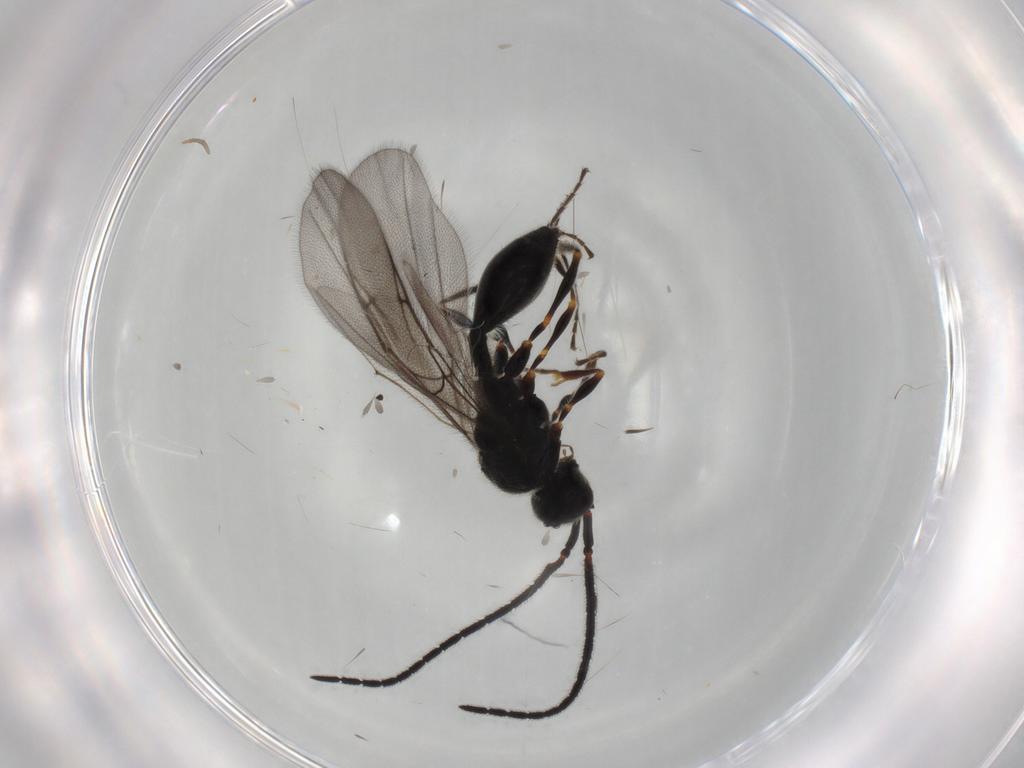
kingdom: Animalia
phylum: Arthropoda
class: Insecta
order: Hymenoptera
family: Diapriidae
